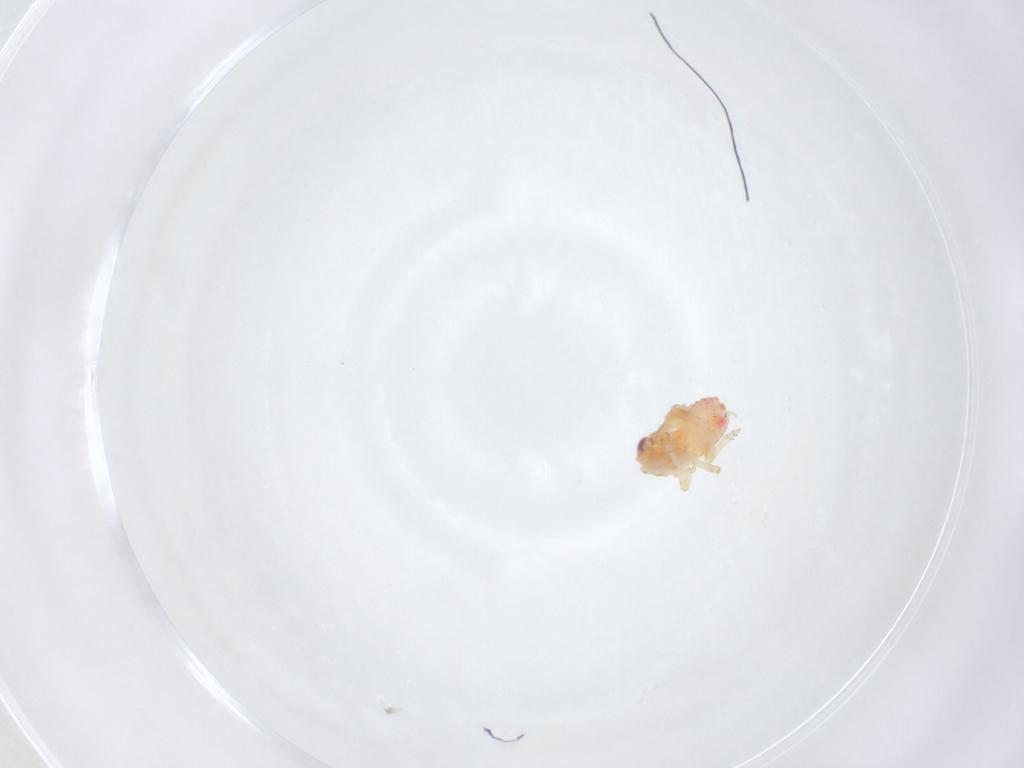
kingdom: Animalia
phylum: Arthropoda
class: Insecta
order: Hemiptera
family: Issidae
